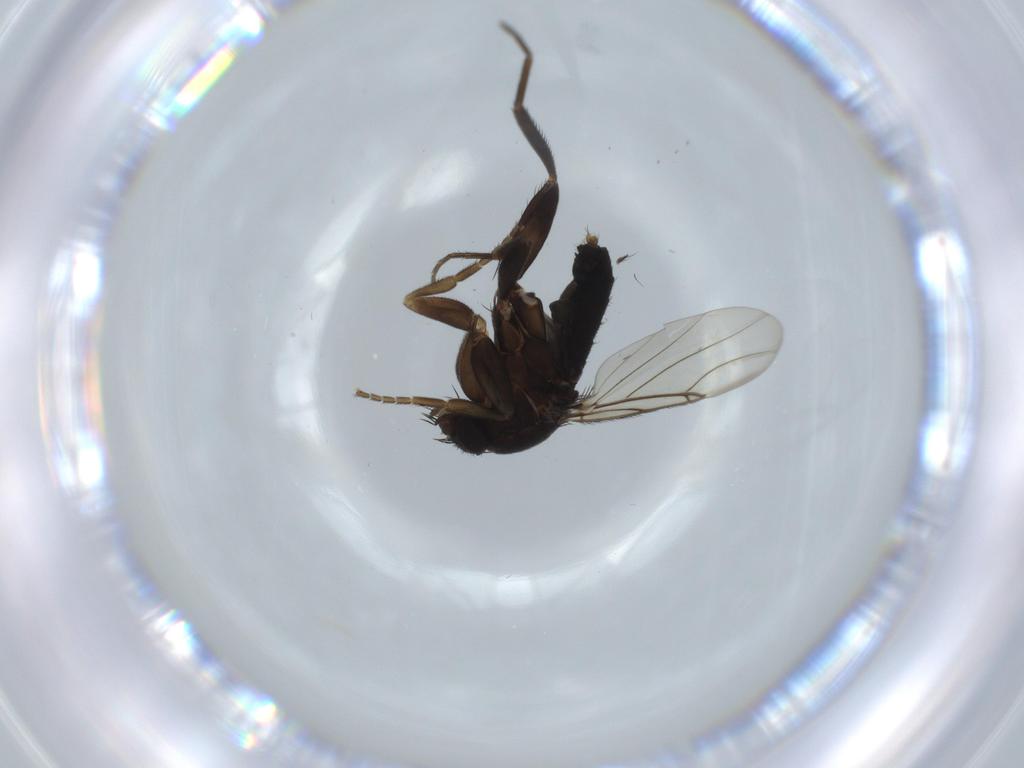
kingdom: Animalia
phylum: Arthropoda
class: Insecta
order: Diptera
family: Phoridae
